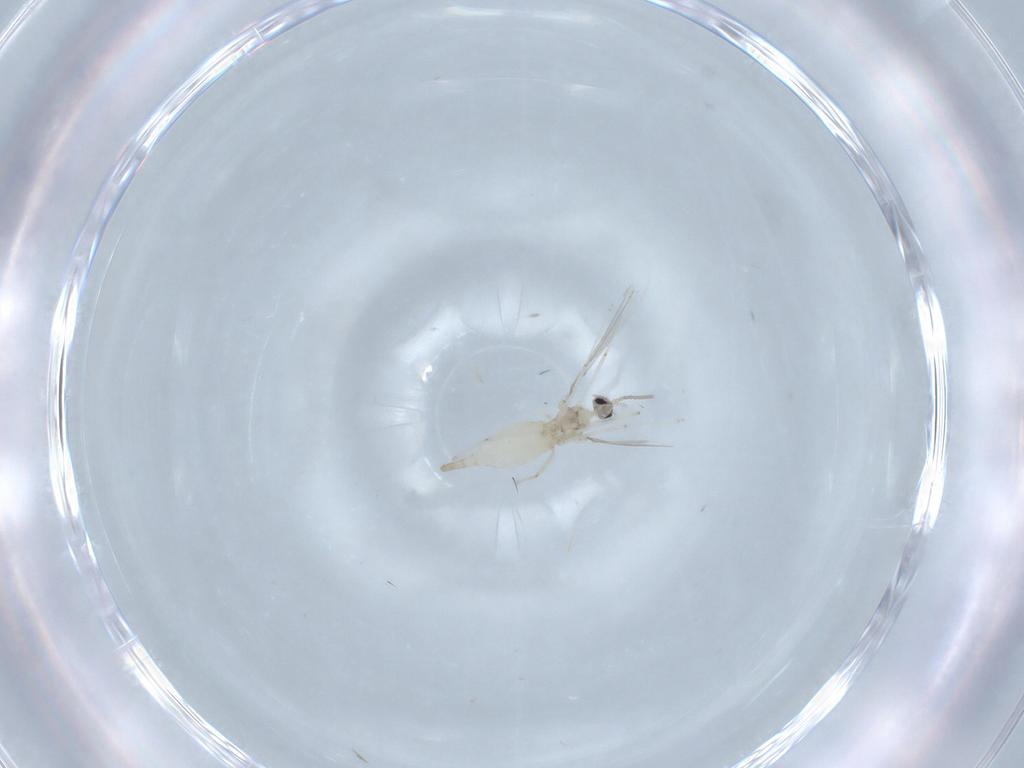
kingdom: Animalia
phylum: Arthropoda
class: Insecta
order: Diptera
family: Cecidomyiidae
